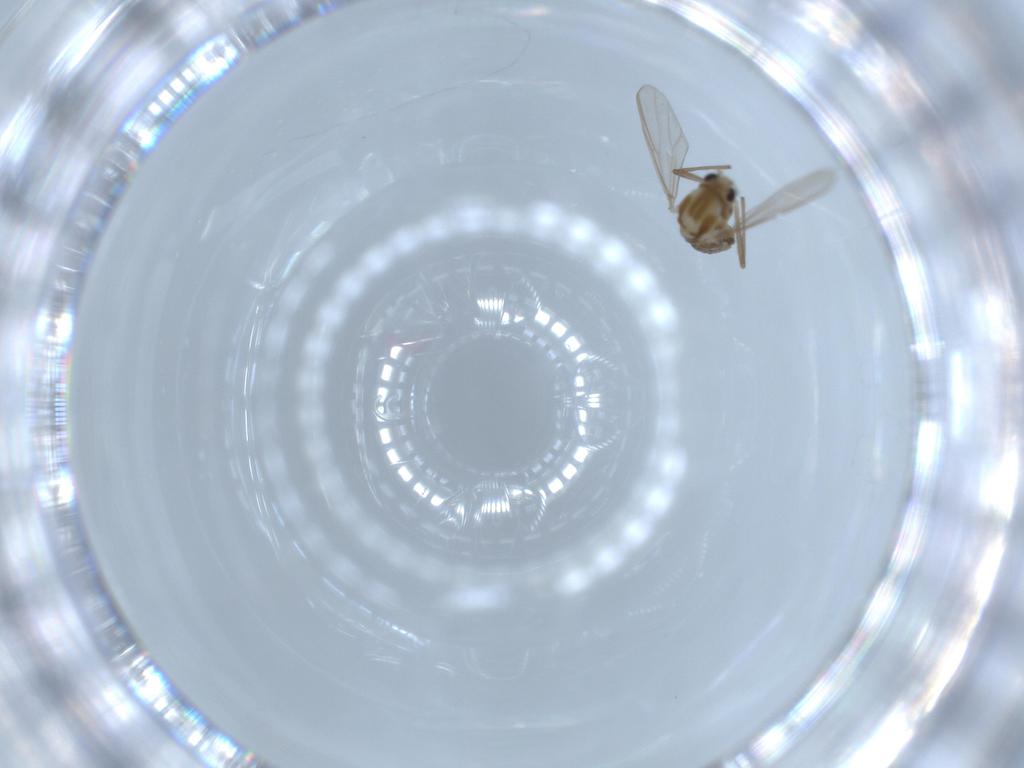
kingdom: Animalia
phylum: Arthropoda
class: Insecta
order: Diptera
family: Chironomidae
